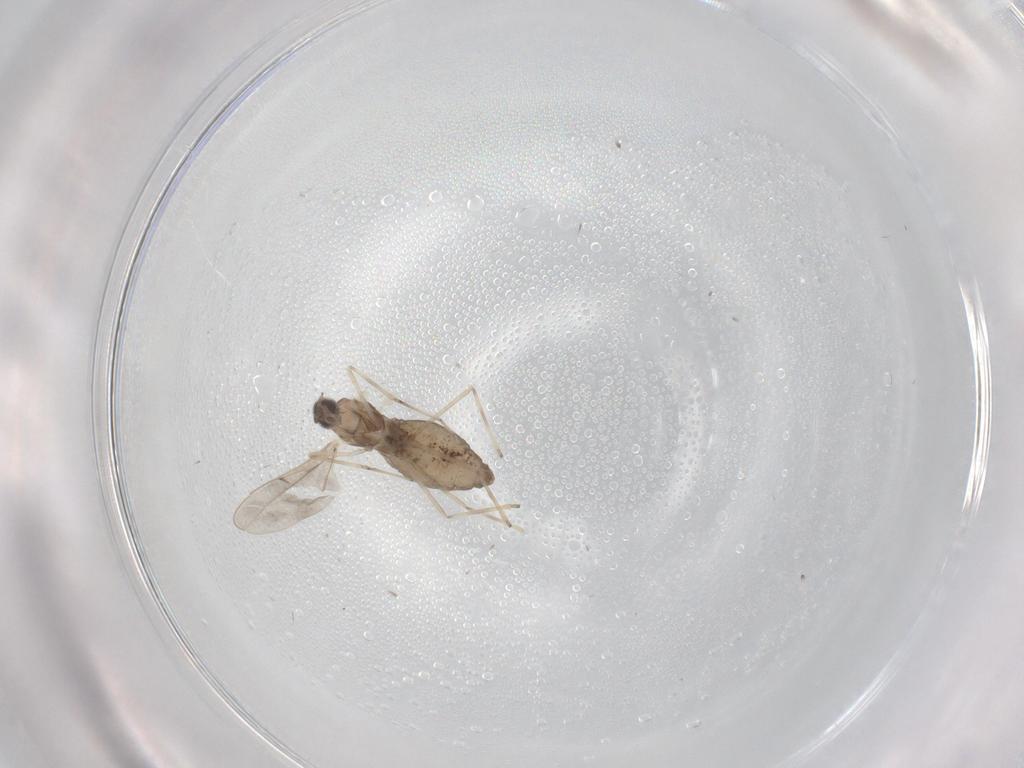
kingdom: Animalia
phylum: Arthropoda
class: Insecta
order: Diptera
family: Cecidomyiidae
